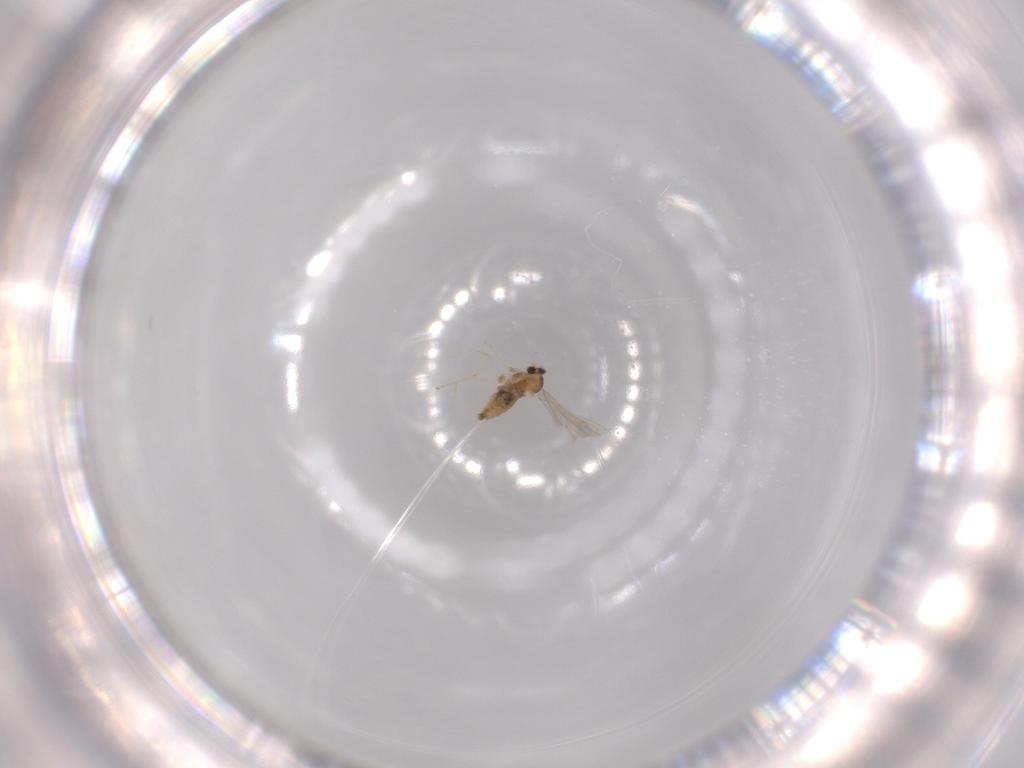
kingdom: Animalia
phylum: Arthropoda
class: Insecta
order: Diptera
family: Cecidomyiidae
